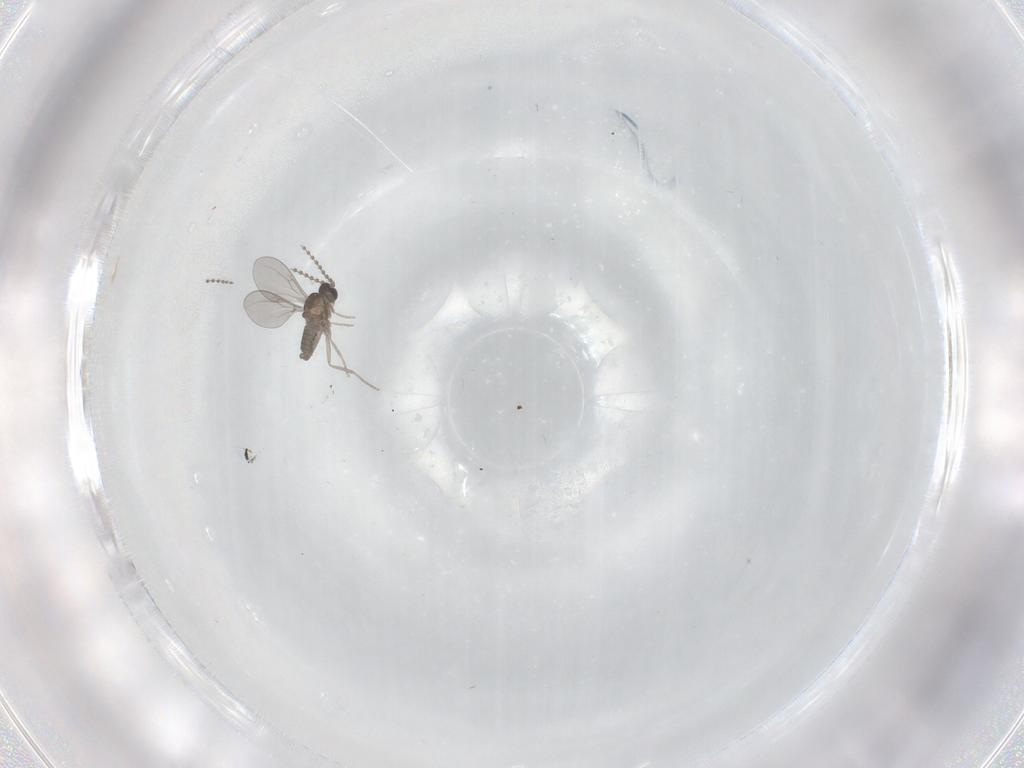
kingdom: Animalia
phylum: Arthropoda
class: Insecta
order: Diptera
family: Cecidomyiidae
